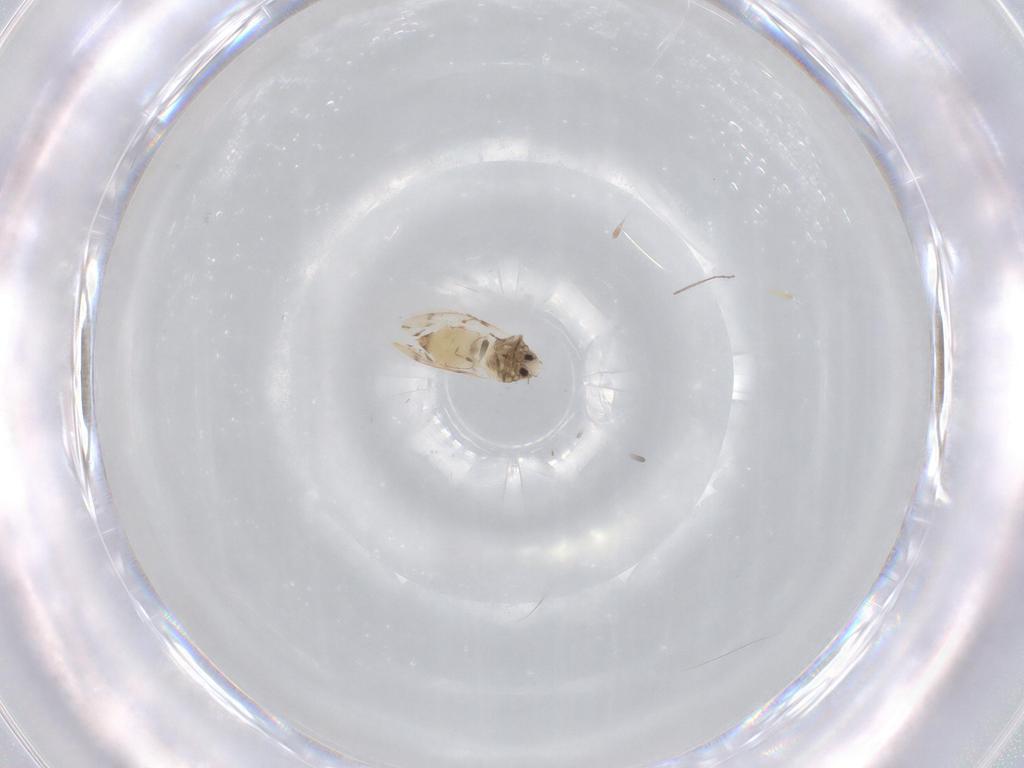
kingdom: Animalia
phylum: Arthropoda
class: Insecta
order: Hemiptera
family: Aleyrodidae
